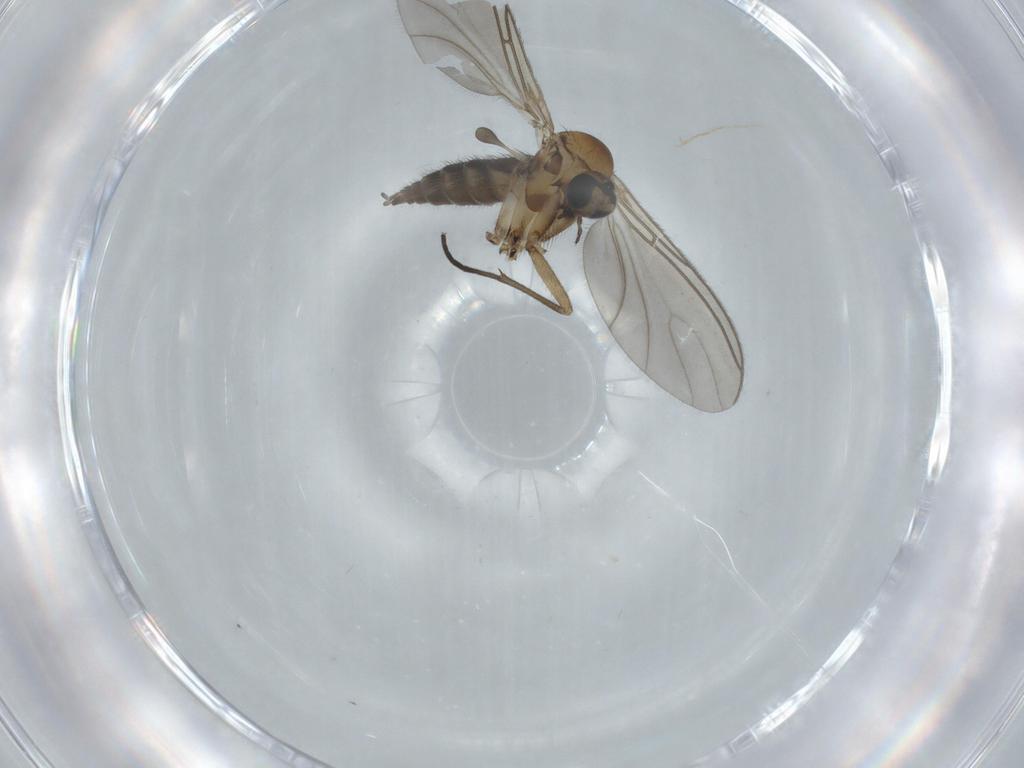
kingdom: Animalia
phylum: Arthropoda
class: Insecta
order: Diptera
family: Sciaridae
